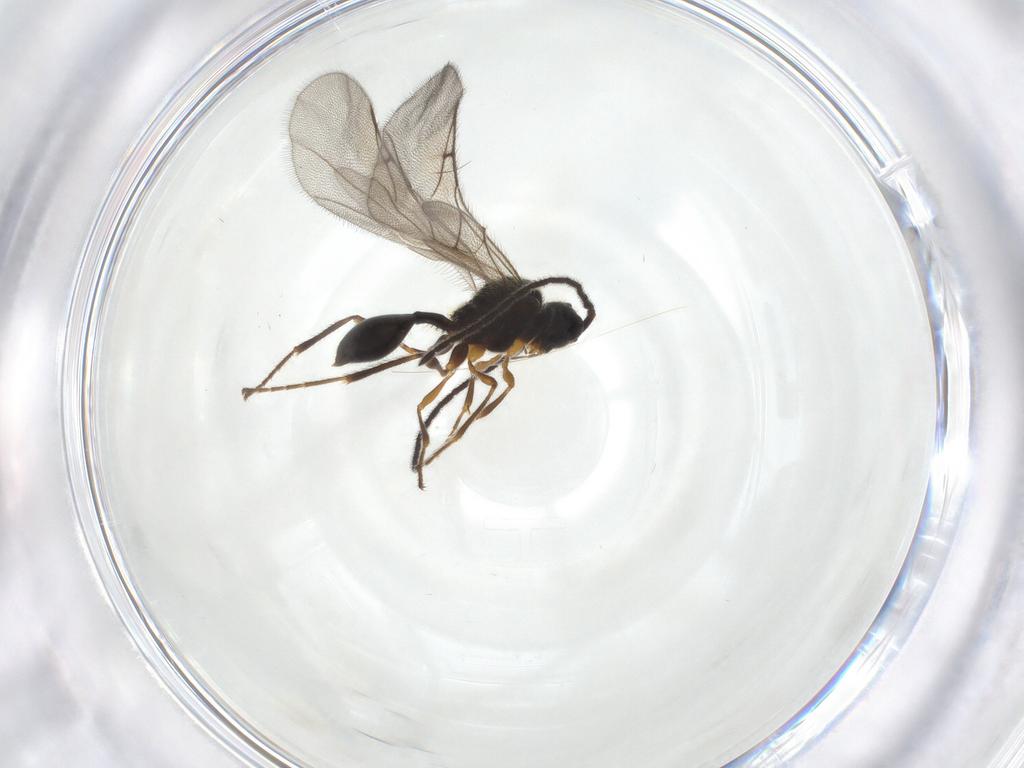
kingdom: Animalia
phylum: Arthropoda
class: Insecta
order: Hymenoptera
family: Diapriidae
